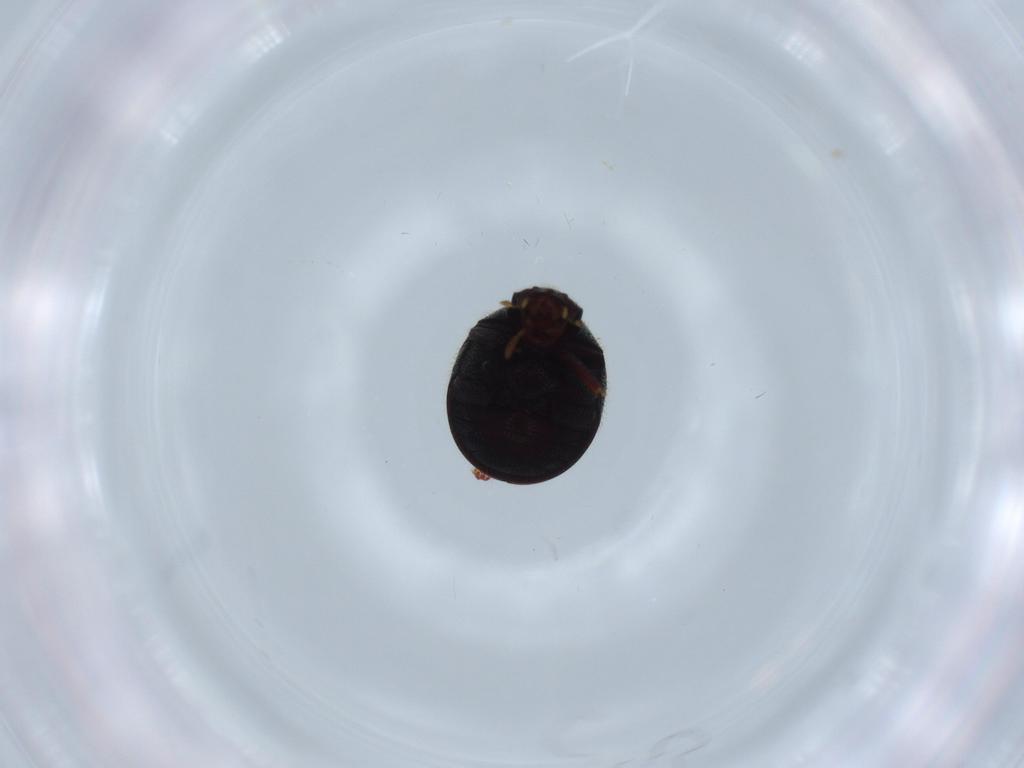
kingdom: Animalia
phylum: Arthropoda
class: Insecta
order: Coleoptera
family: Ptinidae
